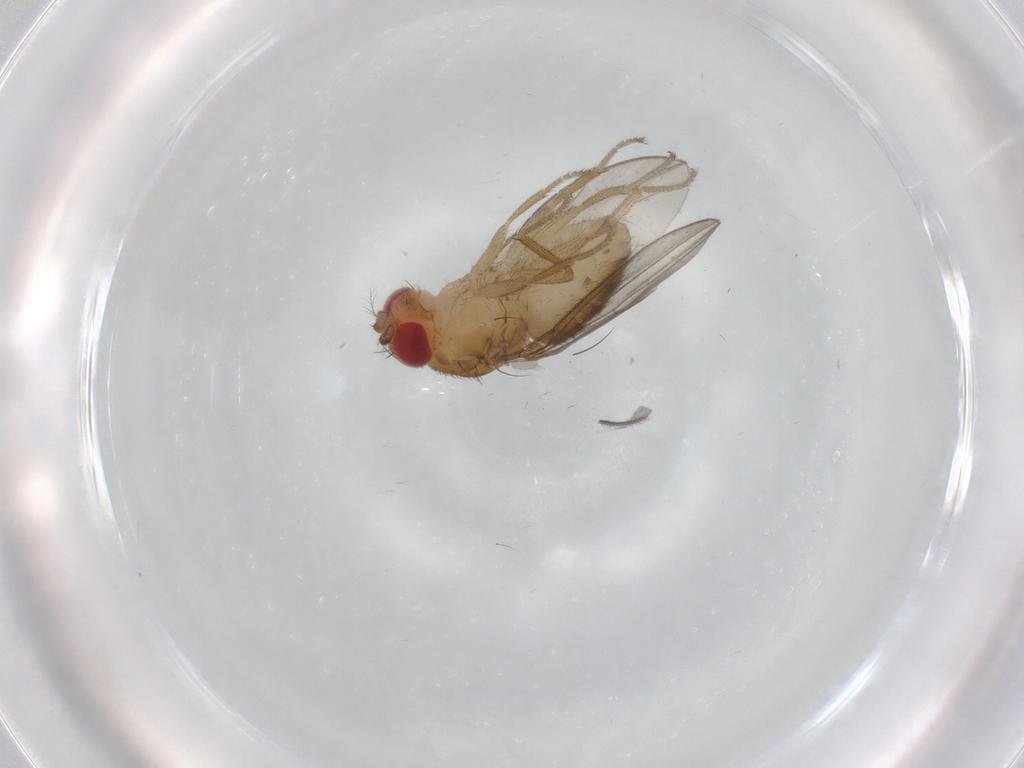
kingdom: Animalia
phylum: Arthropoda
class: Insecta
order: Diptera
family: Drosophilidae
